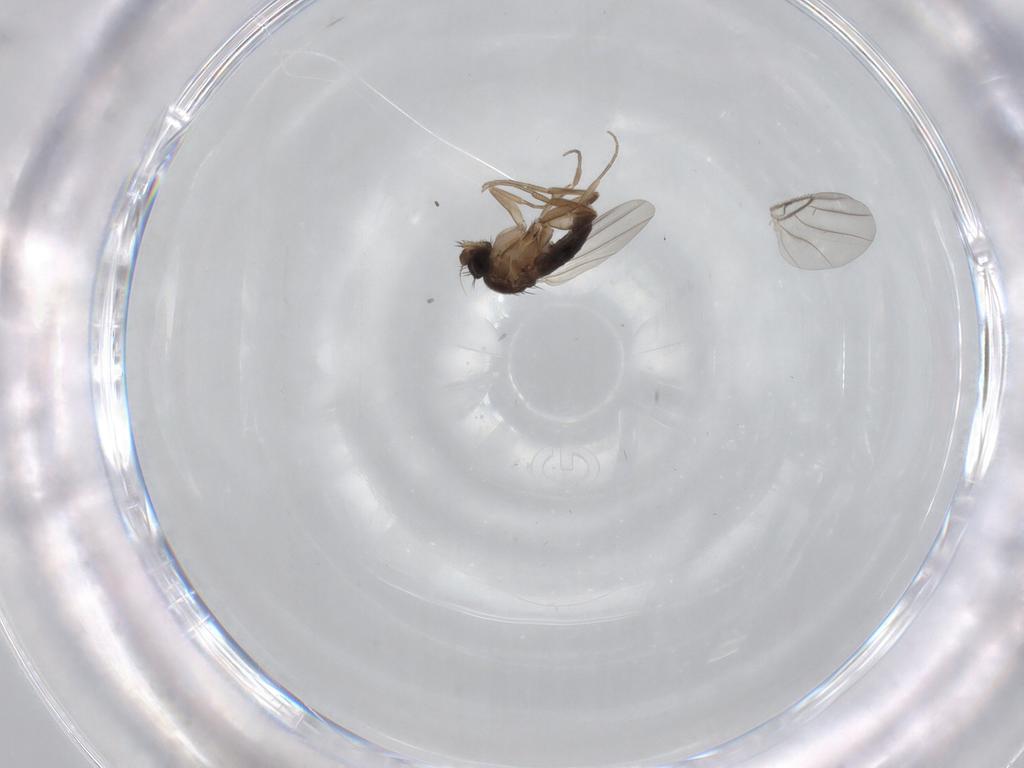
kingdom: Animalia
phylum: Arthropoda
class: Insecta
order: Diptera
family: Phoridae
